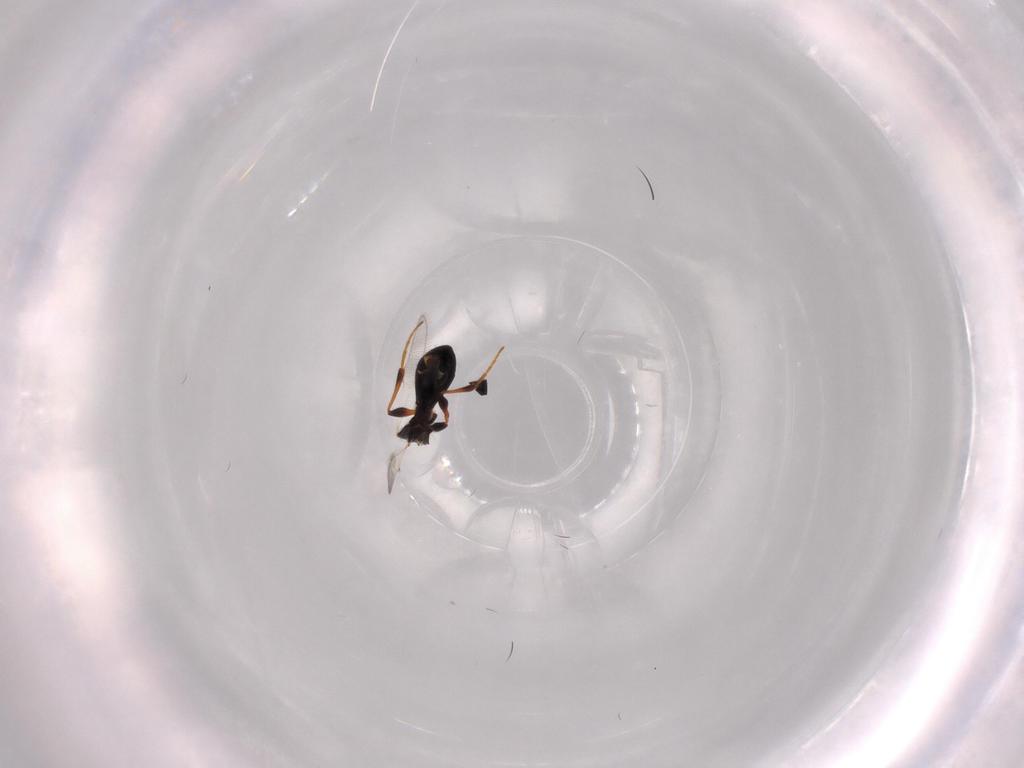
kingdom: Animalia
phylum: Arthropoda
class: Insecta
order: Hymenoptera
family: Platygastridae
